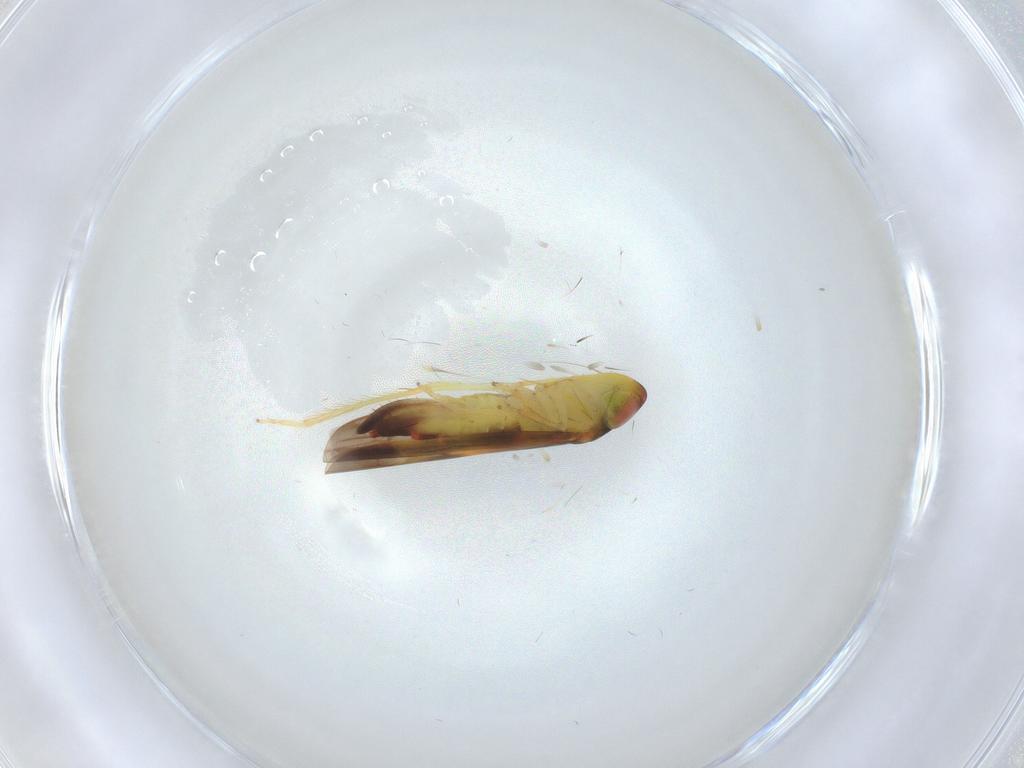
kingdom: Animalia
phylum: Arthropoda
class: Insecta
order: Hemiptera
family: Cicadellidae
